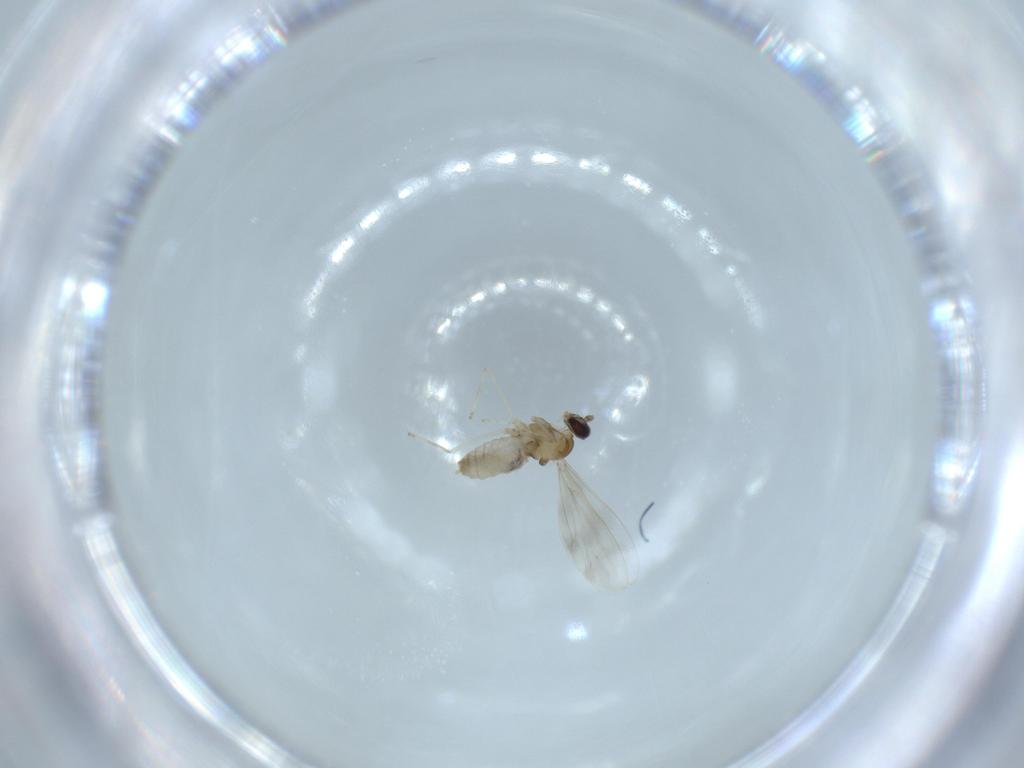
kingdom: Animalia
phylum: Arthropoda
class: Insecta
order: Diptera
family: Cecidomyiidae
